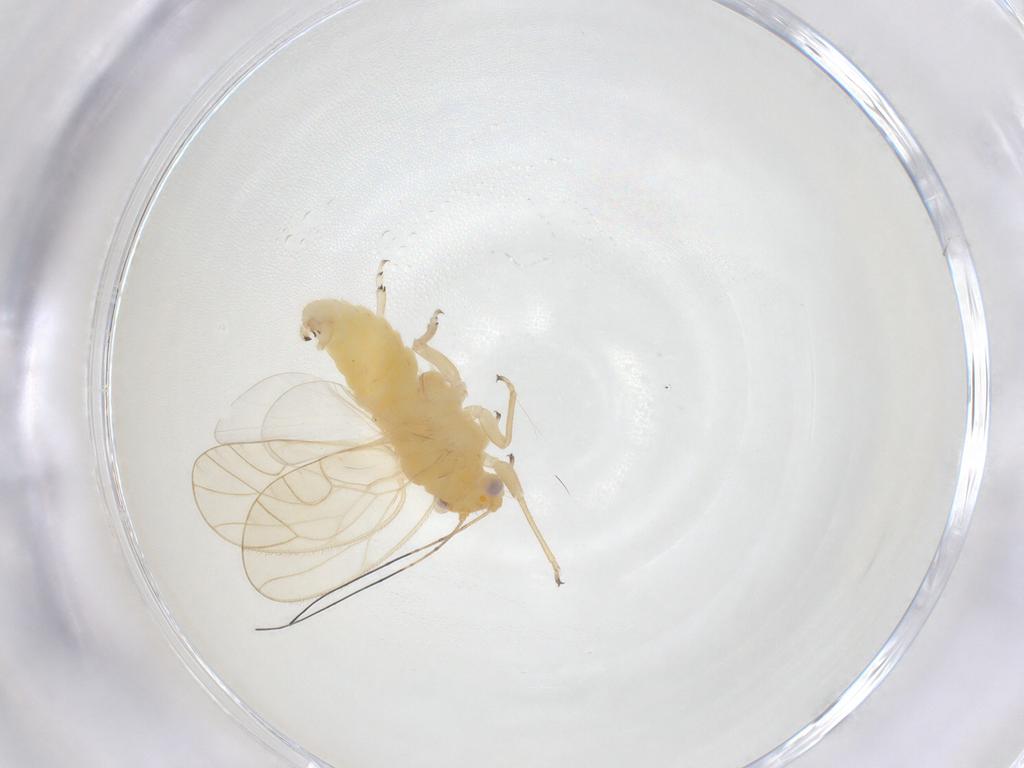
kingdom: Animalia
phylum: Arthropoda
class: Insecta
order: Hemiptera
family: Psyllidae
